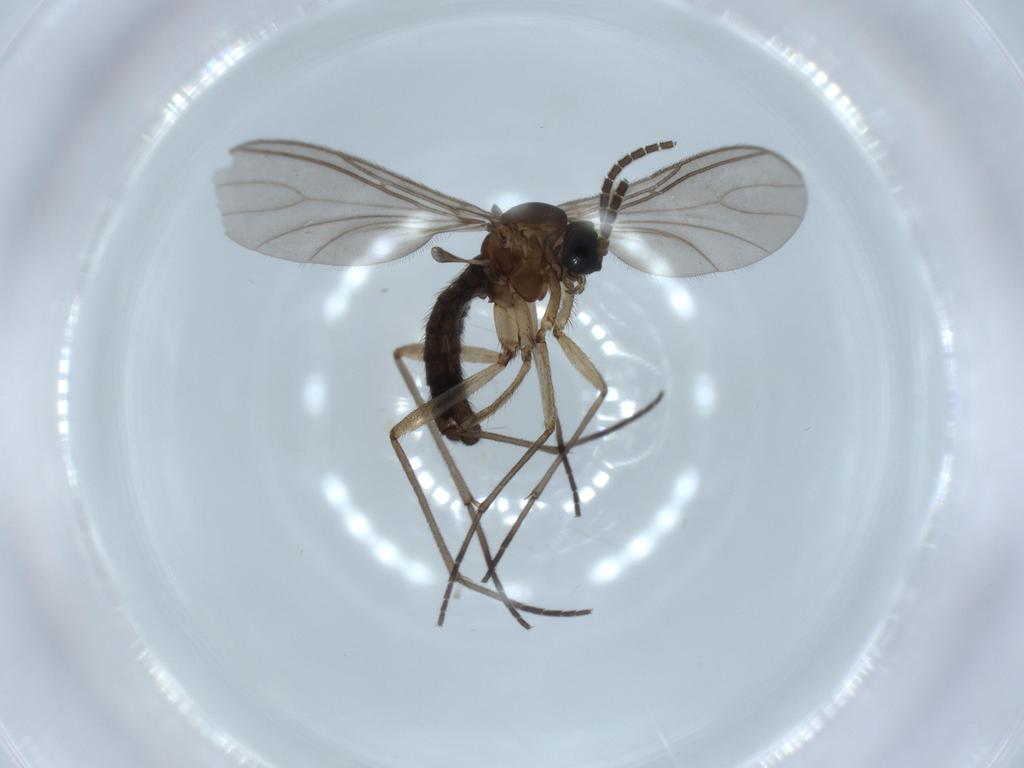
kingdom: Animalia
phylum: Arthropoda
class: Insecta
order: Diptera
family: Sciaridae
